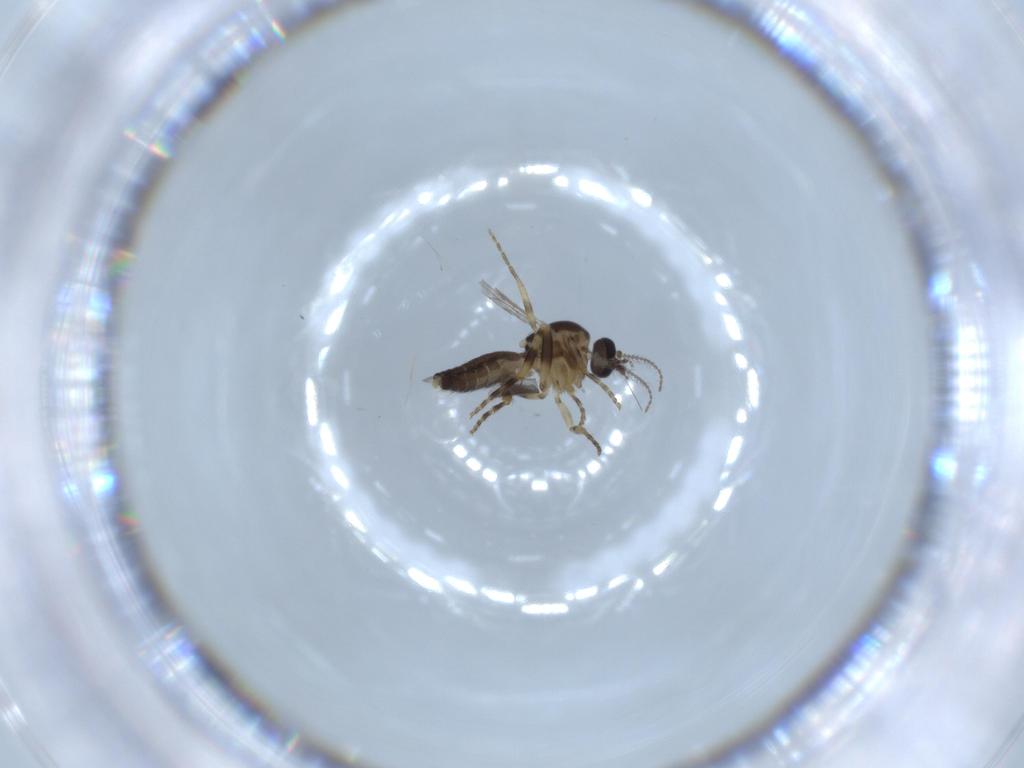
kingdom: Animalia
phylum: Arthropoda
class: Insecta
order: Diptera
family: Ceratopogonidae
